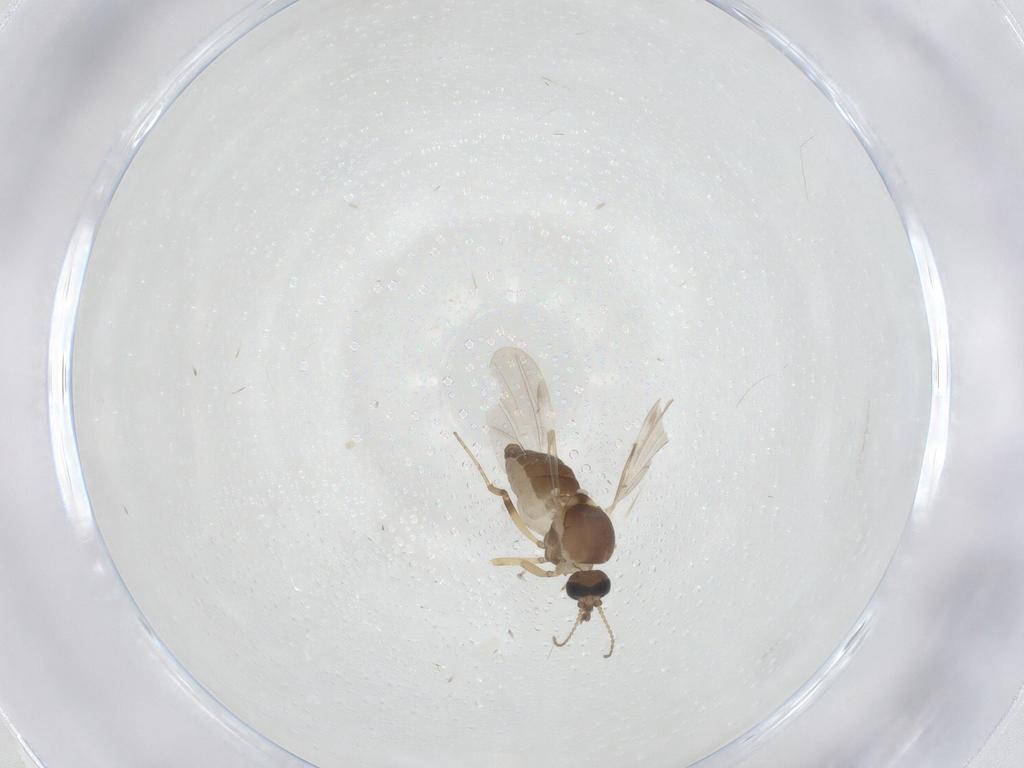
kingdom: Animalia
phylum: Arthropoda
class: Insecta
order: Diptera
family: Ceratopogonidae
